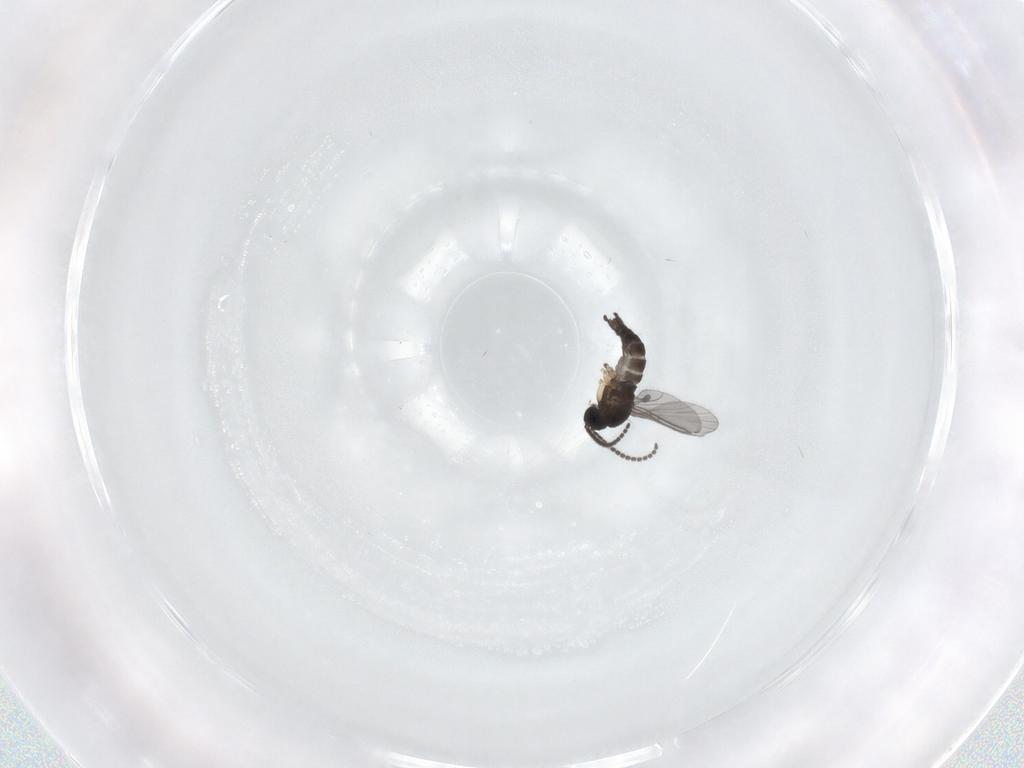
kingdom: Animalia
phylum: Arthropoda
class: Insecta
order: Diptera
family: Sciaridae
